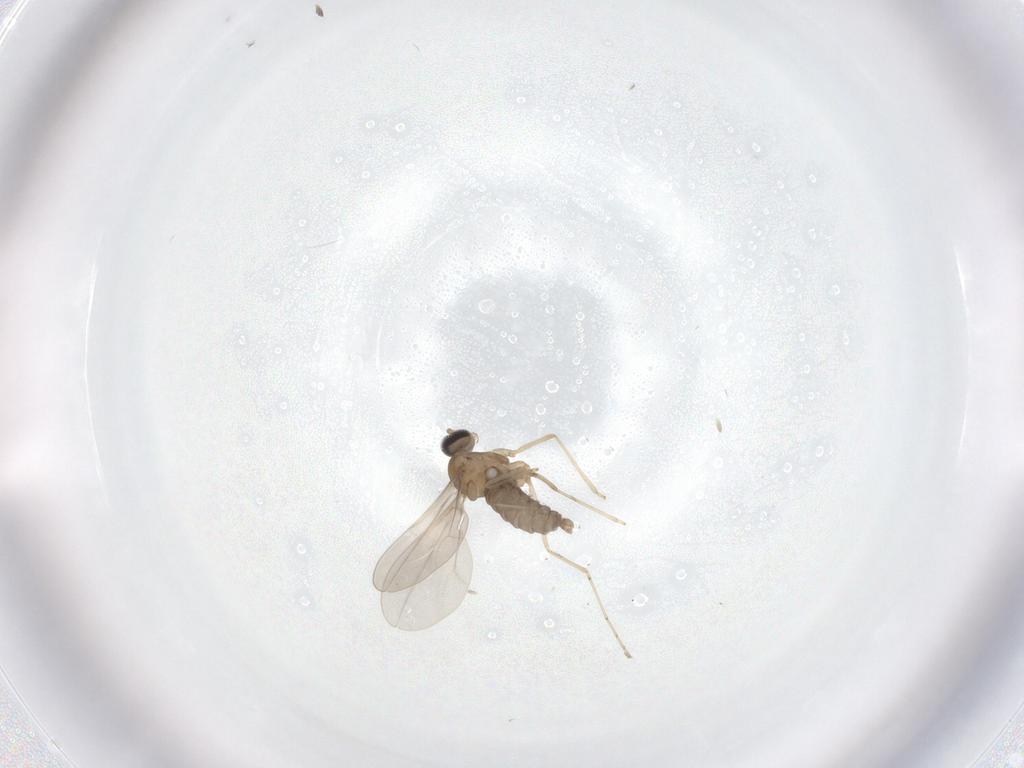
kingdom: Animalia
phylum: Arthropoda
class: Insecta
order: Diptera
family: Cecidomyiidae
